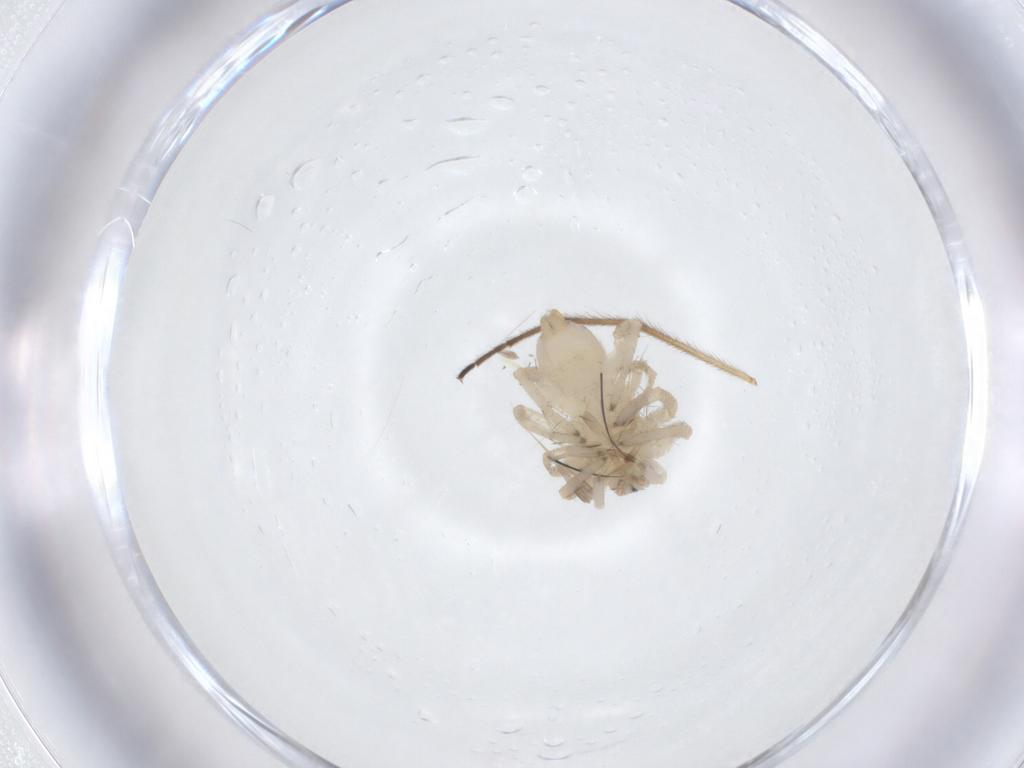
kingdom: Animalia
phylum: Arthropoda
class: Arachnida
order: Araneae
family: Clubionidae
